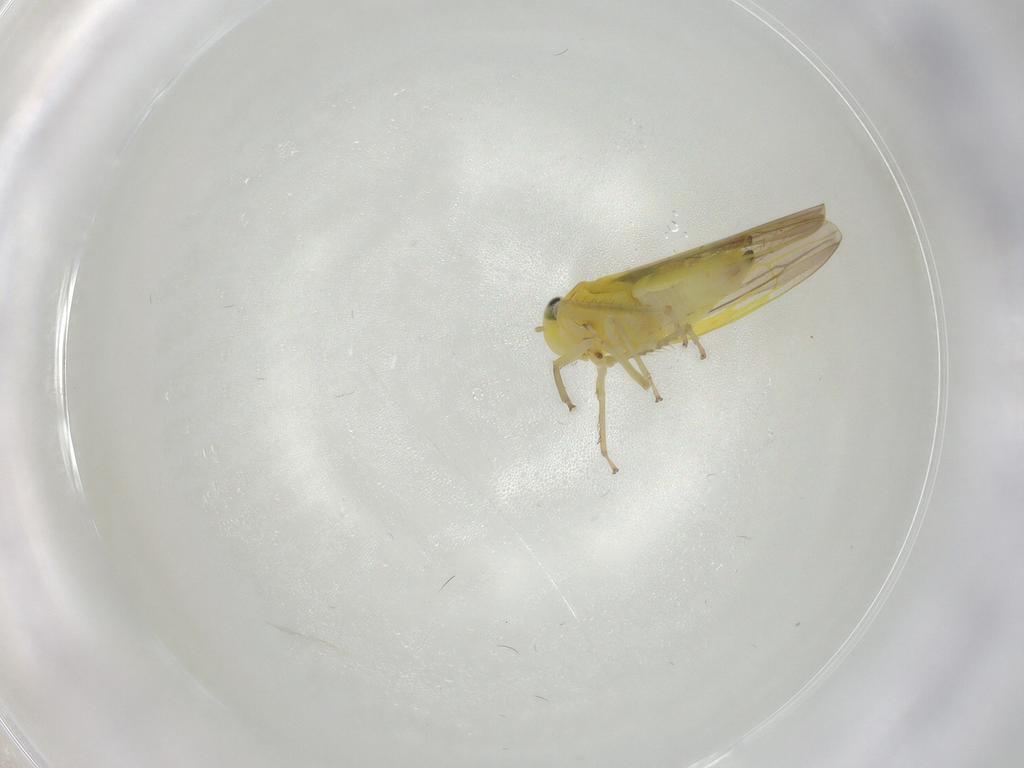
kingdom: Animalia
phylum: Arthropoda
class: Insecta
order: Hemiptera
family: Cicadellidae
